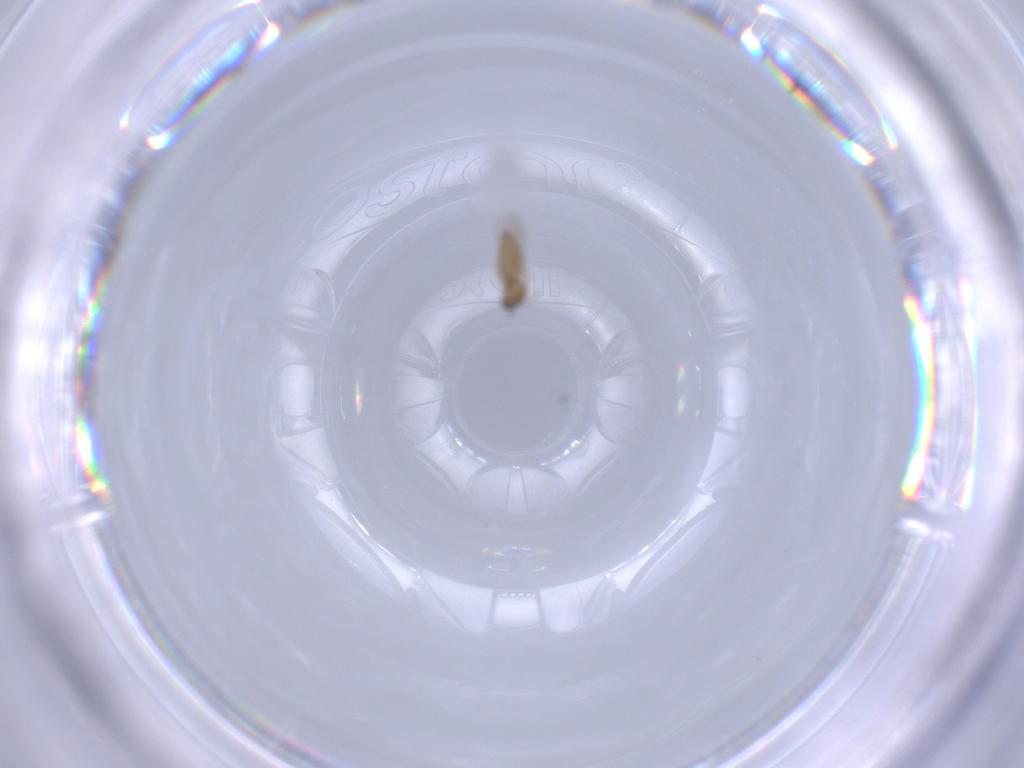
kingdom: Animalia
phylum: Arthropoda
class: Insecta
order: Diptera
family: Cecidomyiidae
